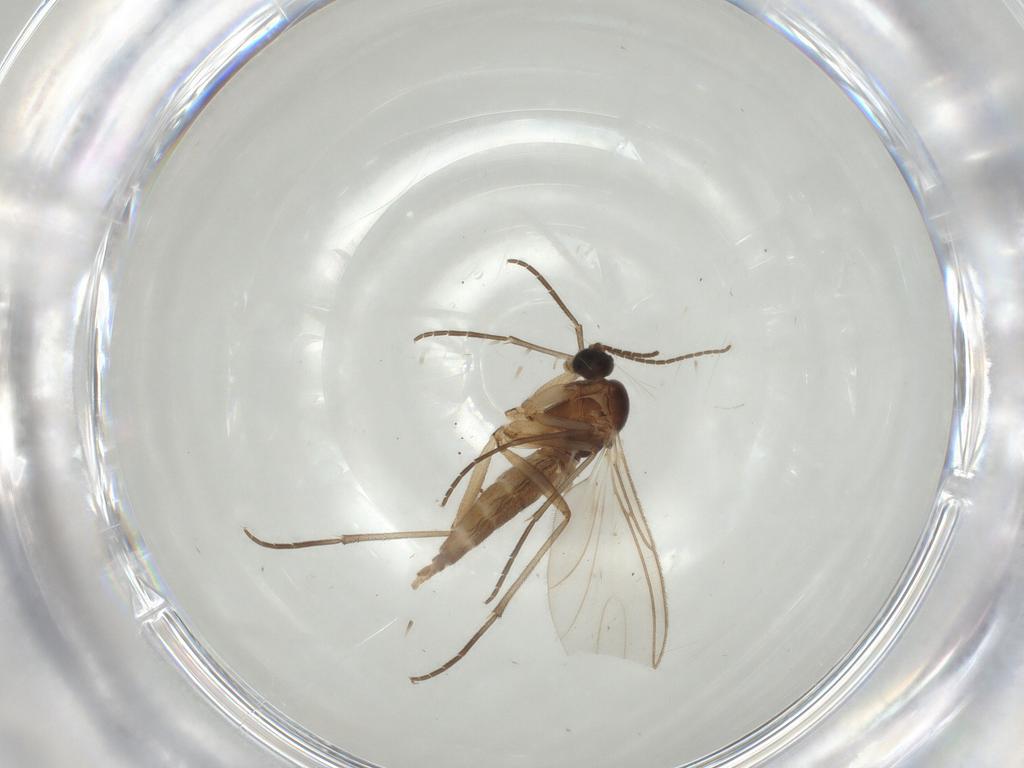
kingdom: Animalia
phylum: Arthropoda
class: Insecta
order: Diptera
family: Sciaridae
